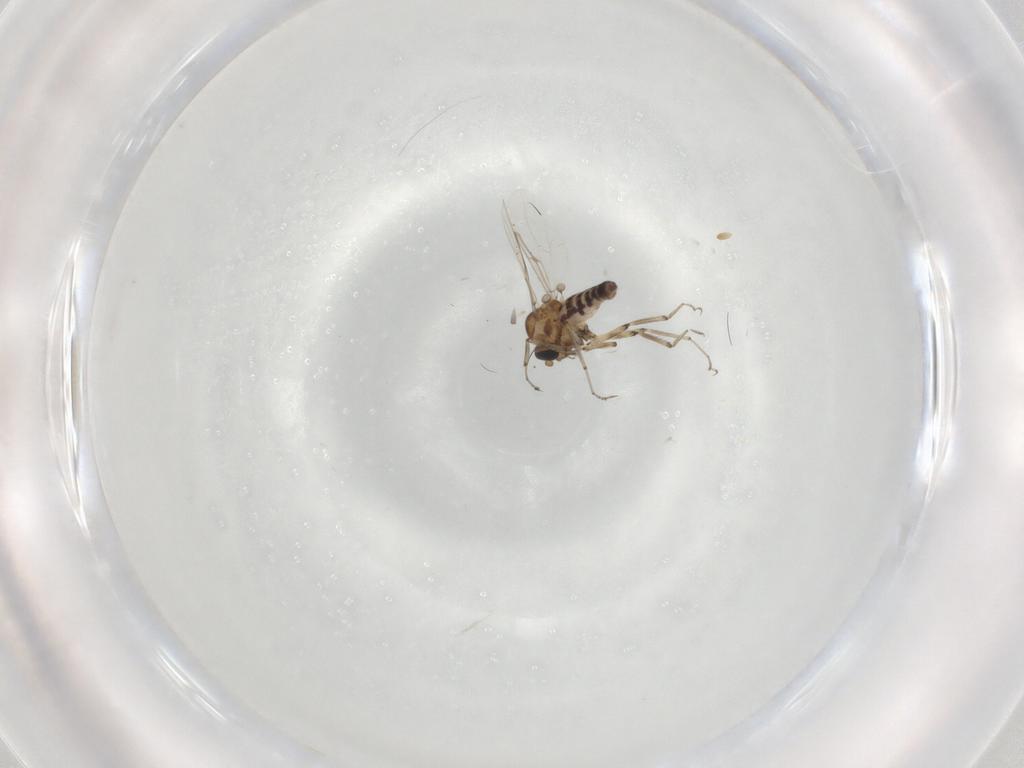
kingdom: Animalia
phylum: Arthropoda
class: Insecta
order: Diptera
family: Ceratopogonidae
